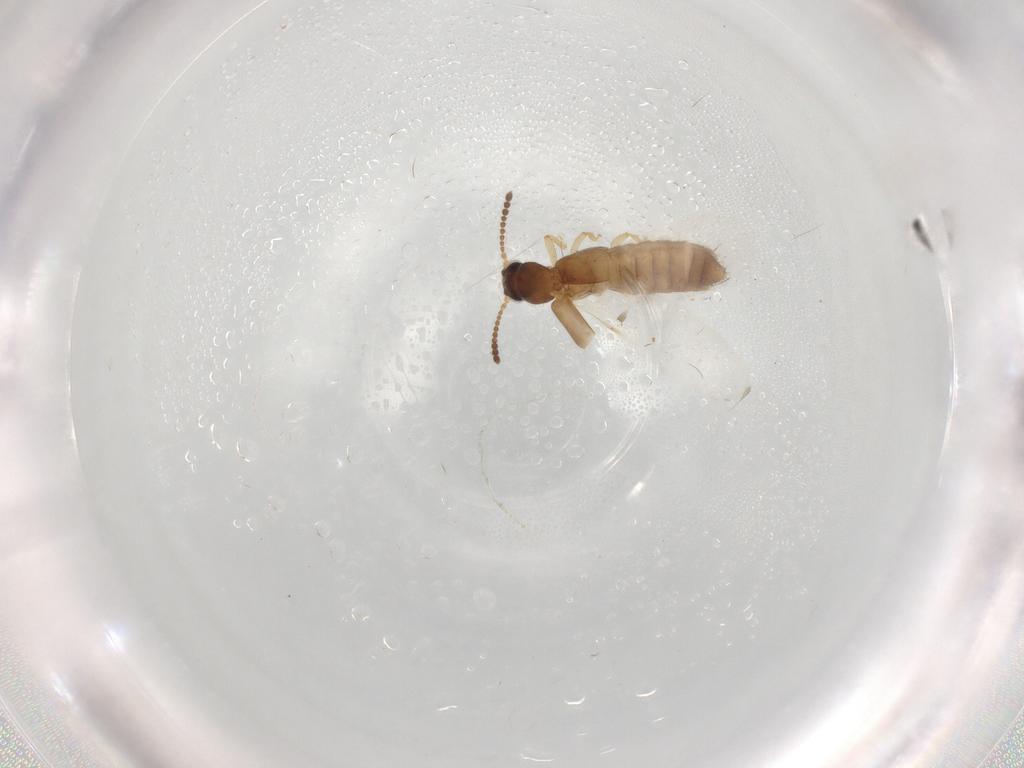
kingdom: Animalia
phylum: Arthropoda
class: Insecta
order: Coleoptera
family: Staphylinidae
